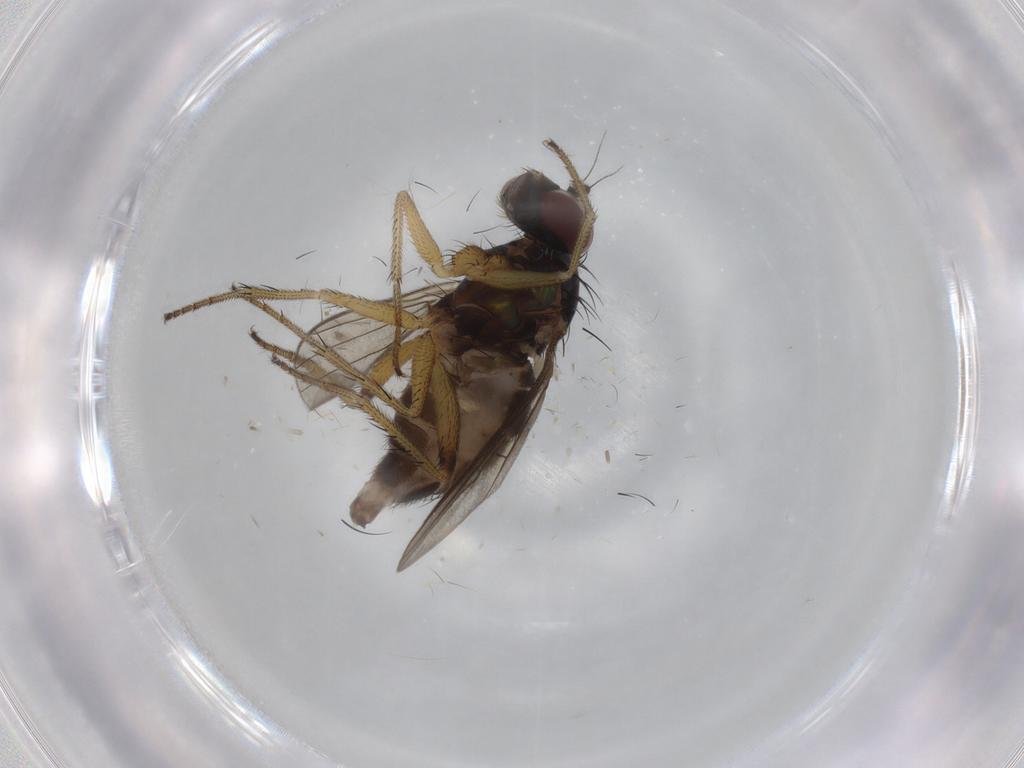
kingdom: Animalia
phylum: Arthropoda
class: Insecta
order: Diptera
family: Dolichopodidae
